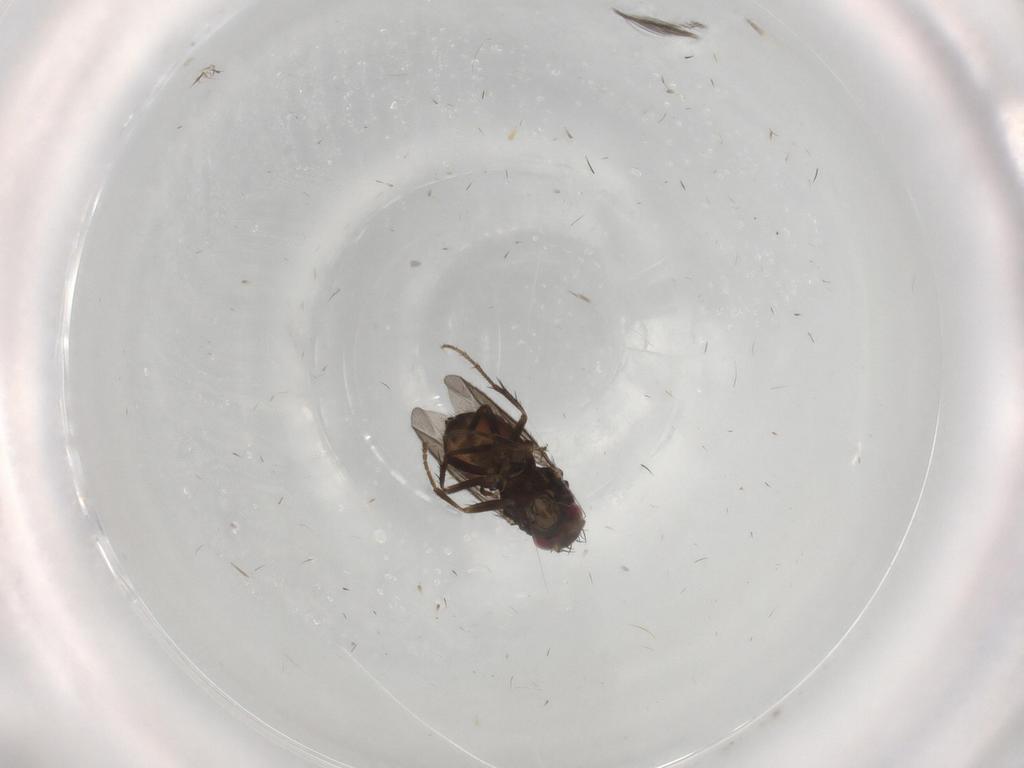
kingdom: Animalia
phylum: Arthropoda
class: Insecta
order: Diptera
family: Sphaeroceridae
